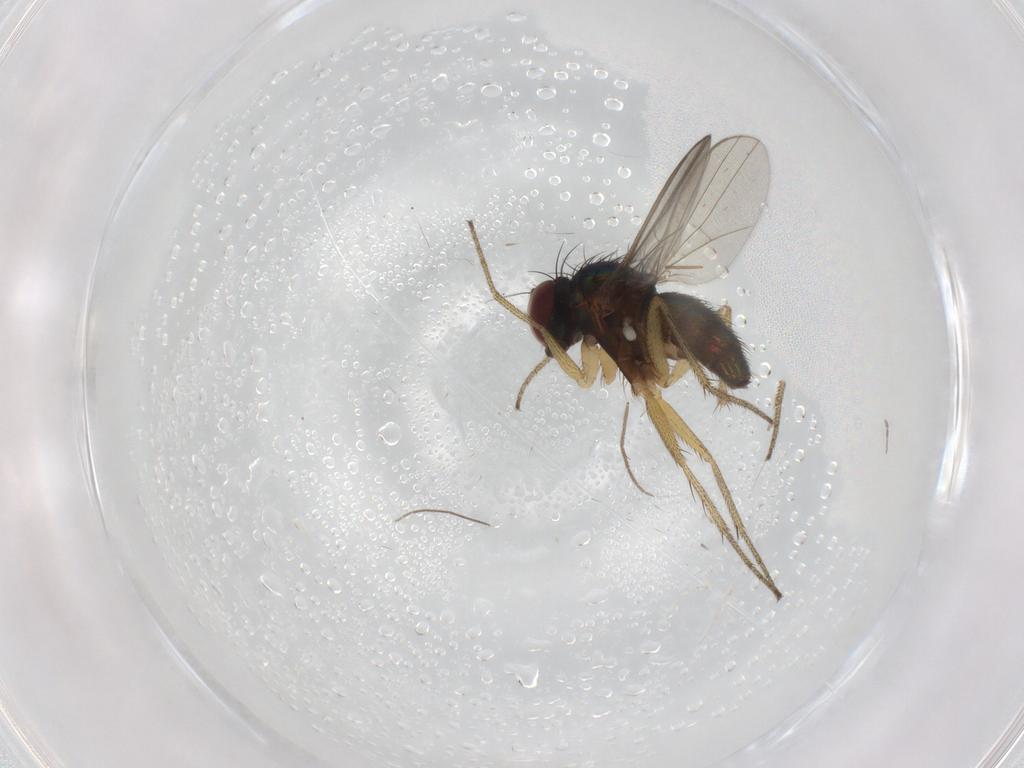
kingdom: Animalia
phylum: Arthropoda
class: Insecta
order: Diptera
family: Dolichopodidae
